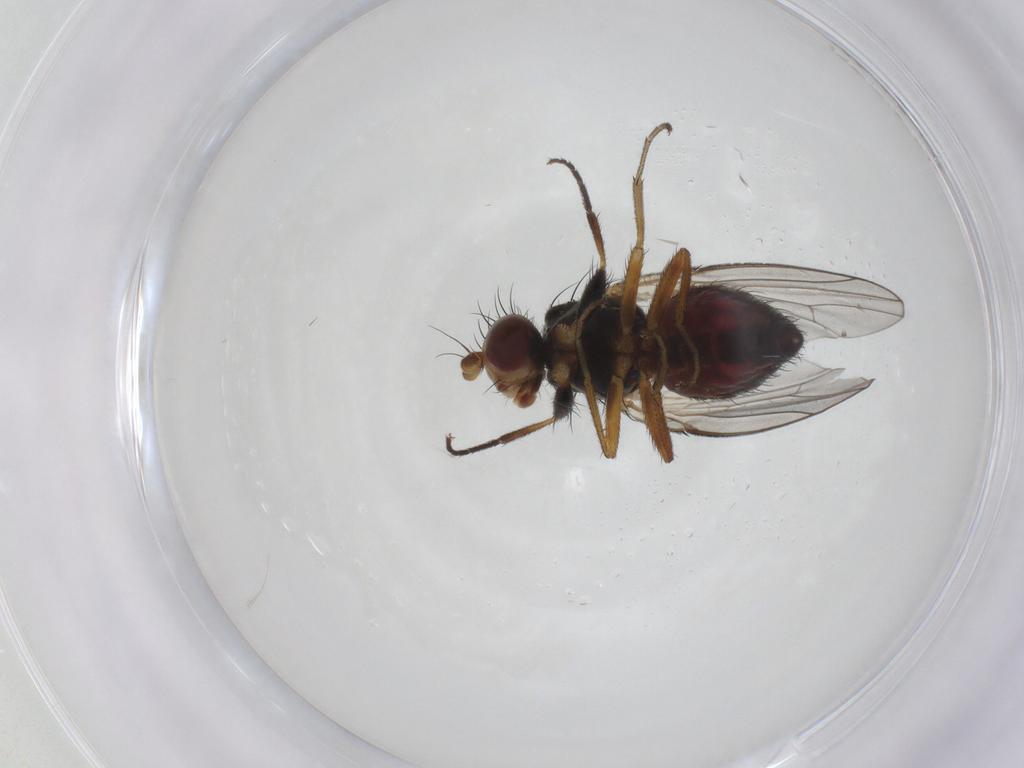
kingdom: Animalia
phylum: Arthropoda
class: Insecta
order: Diptera
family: Heleomyzidae
